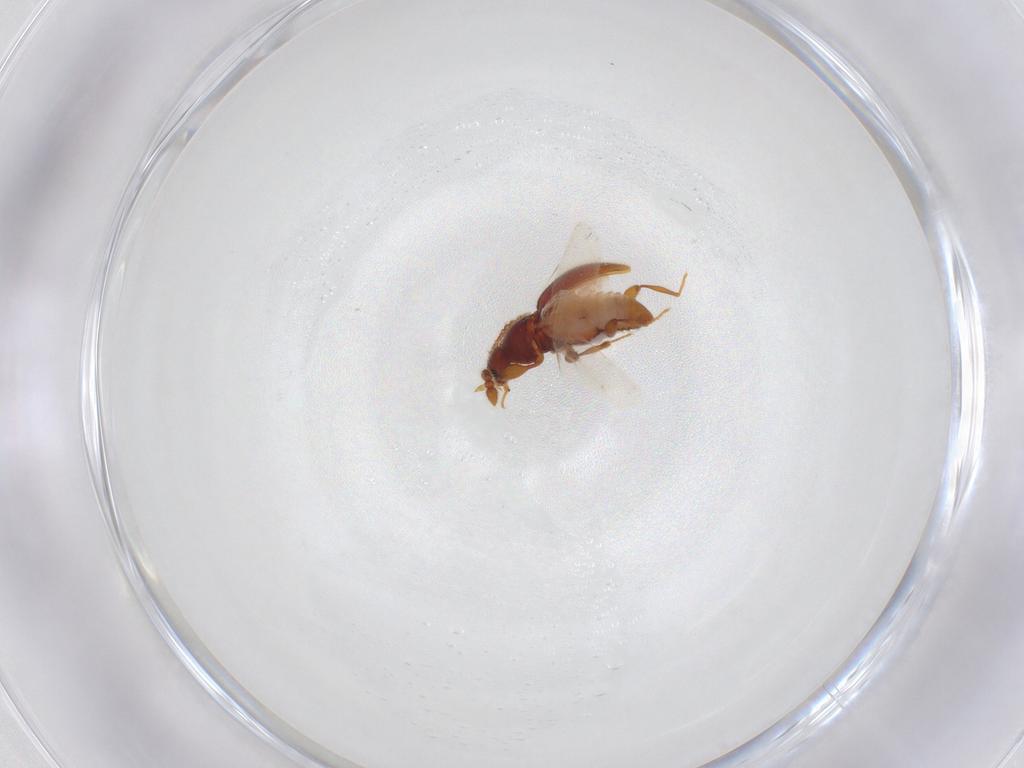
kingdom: Animalia
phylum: Arthropoda
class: Insecta
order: Coleoptera
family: Staphylinidae
